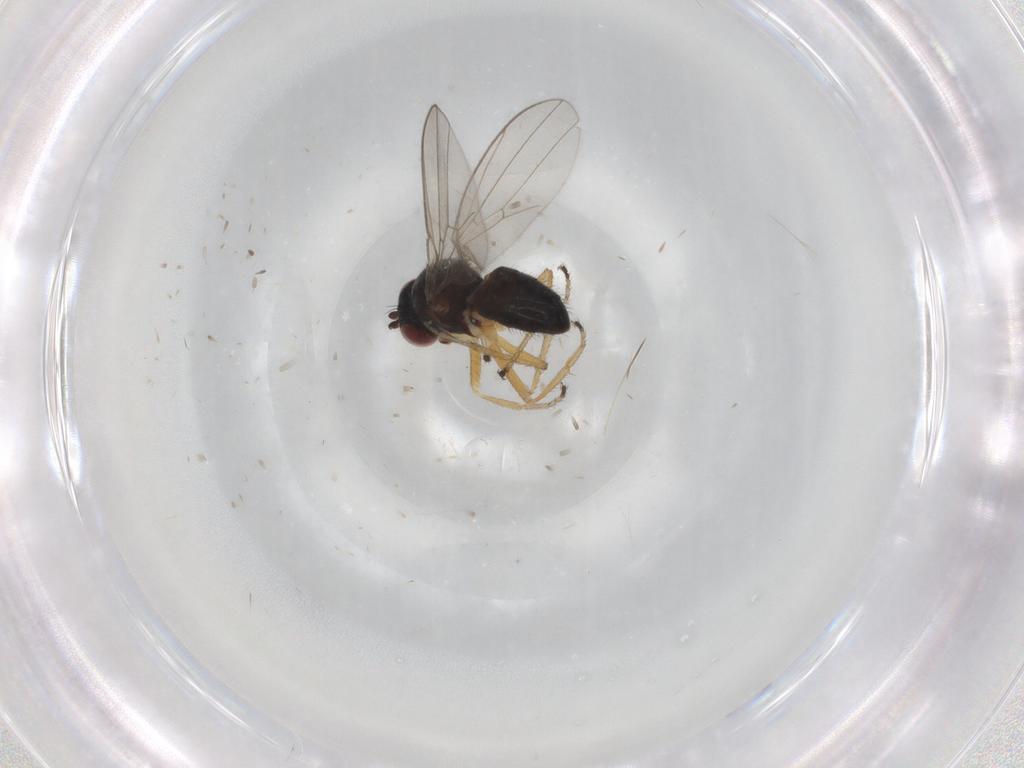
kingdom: Animalia
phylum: Arthropoda
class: Insecta
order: Diptera
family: Ephydridae
